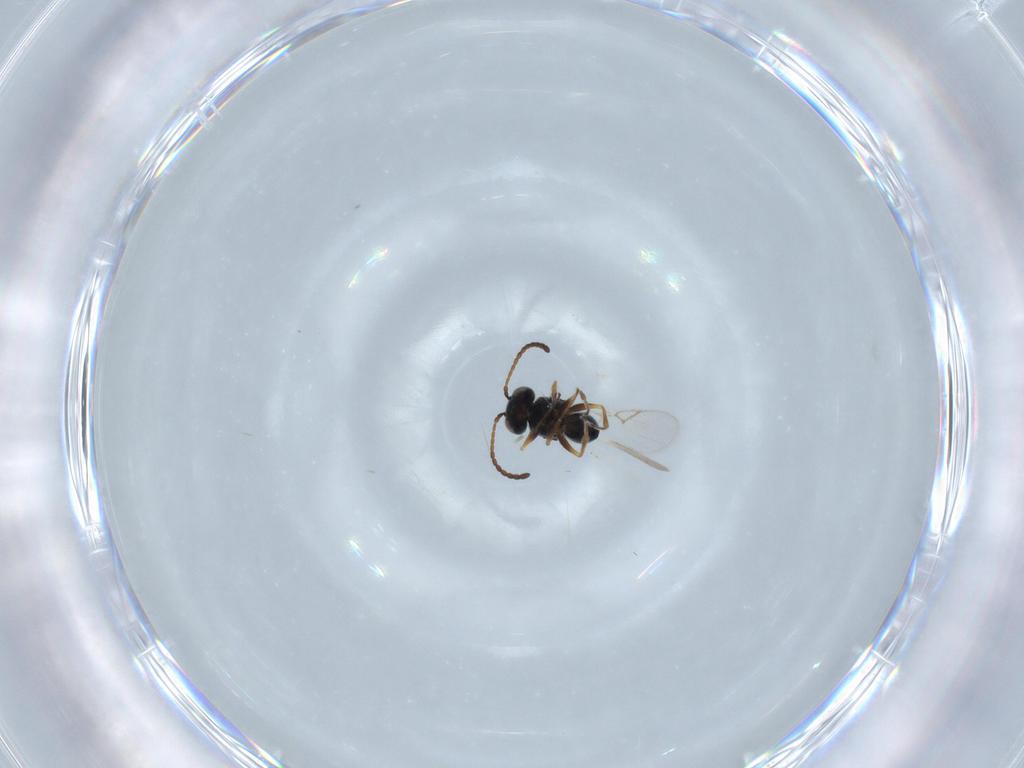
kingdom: Animalia
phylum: Arthropoda
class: Insecta
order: Hymenoptera
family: Figitidae
